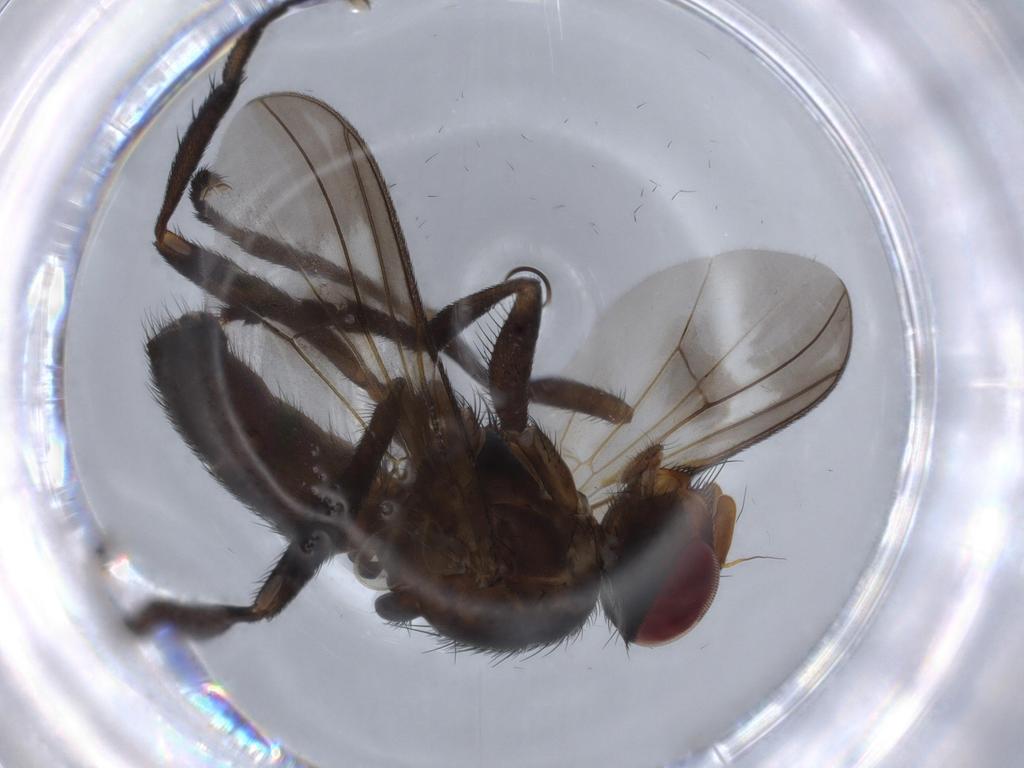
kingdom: Animalia
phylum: Arthropoda
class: Insecta
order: Diptera
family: Calliphoridae
